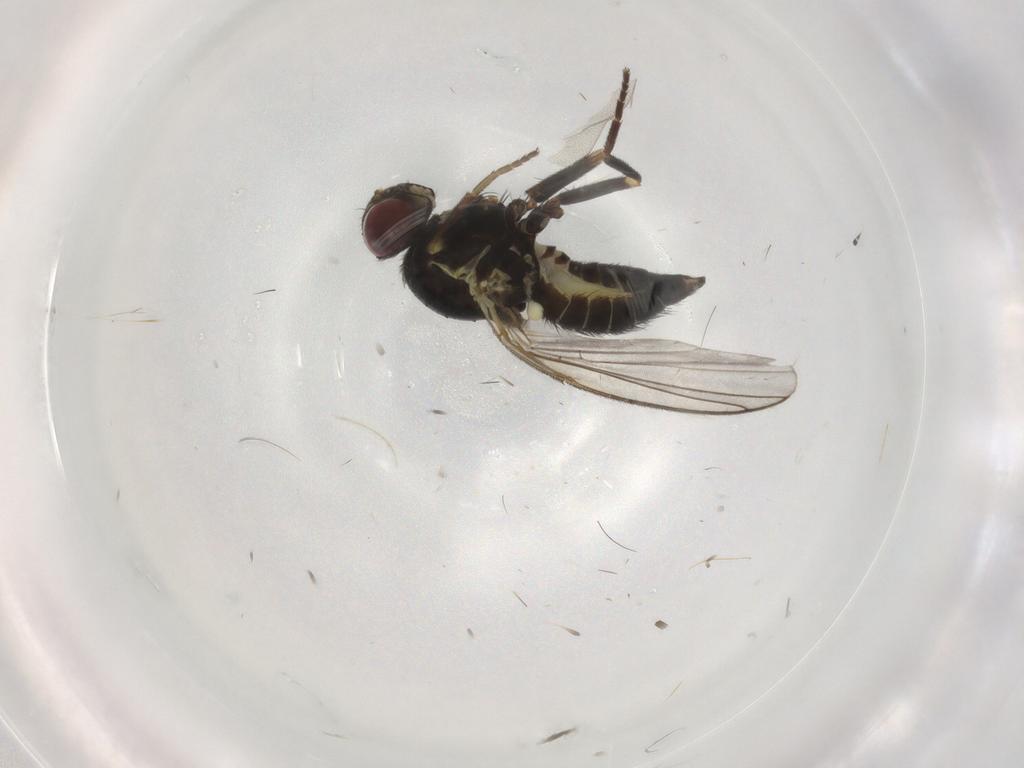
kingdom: Animalia
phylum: Arthropoda
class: Insecta
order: Diptera
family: Agromyzidae
